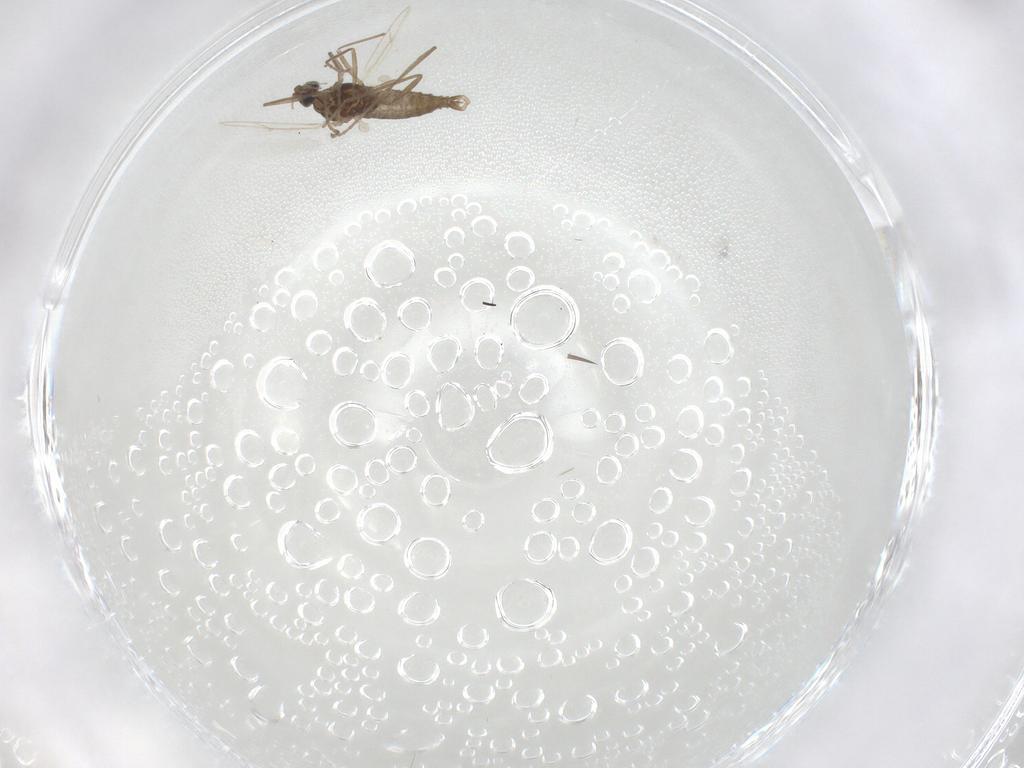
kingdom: Animalia
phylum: Arthropoda
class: Insecta
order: Diptera
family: Cecidomyiidae
